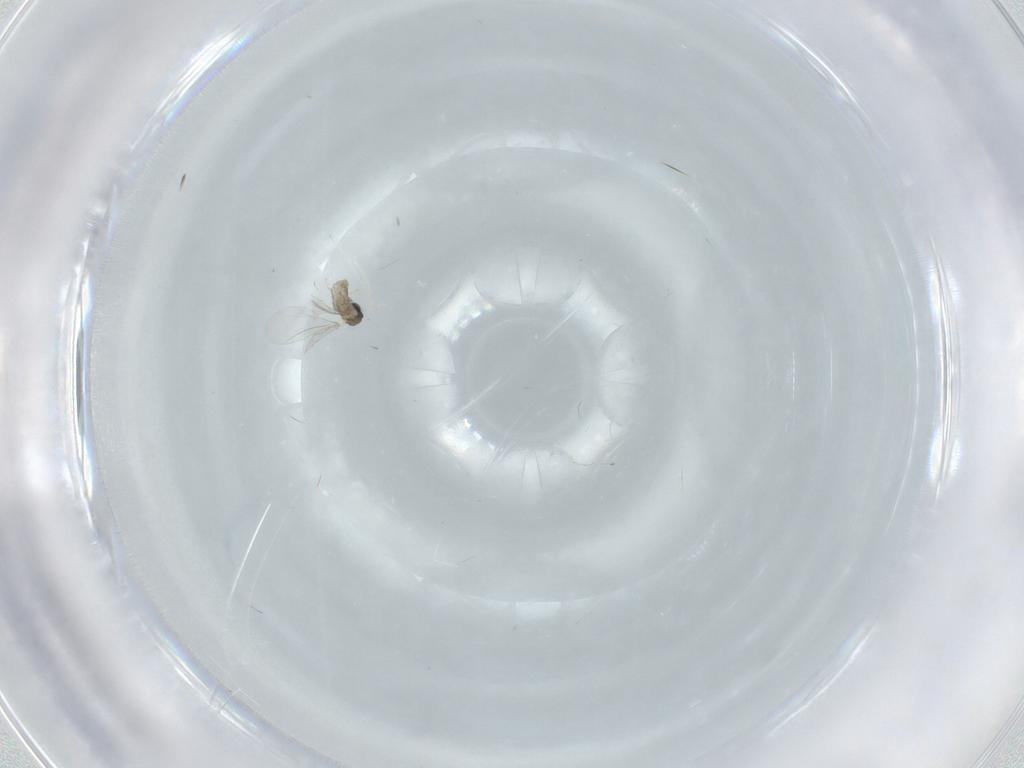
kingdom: Animalia
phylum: Arthropoda
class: Insecta
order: Diptera
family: Cecidomyiidae
